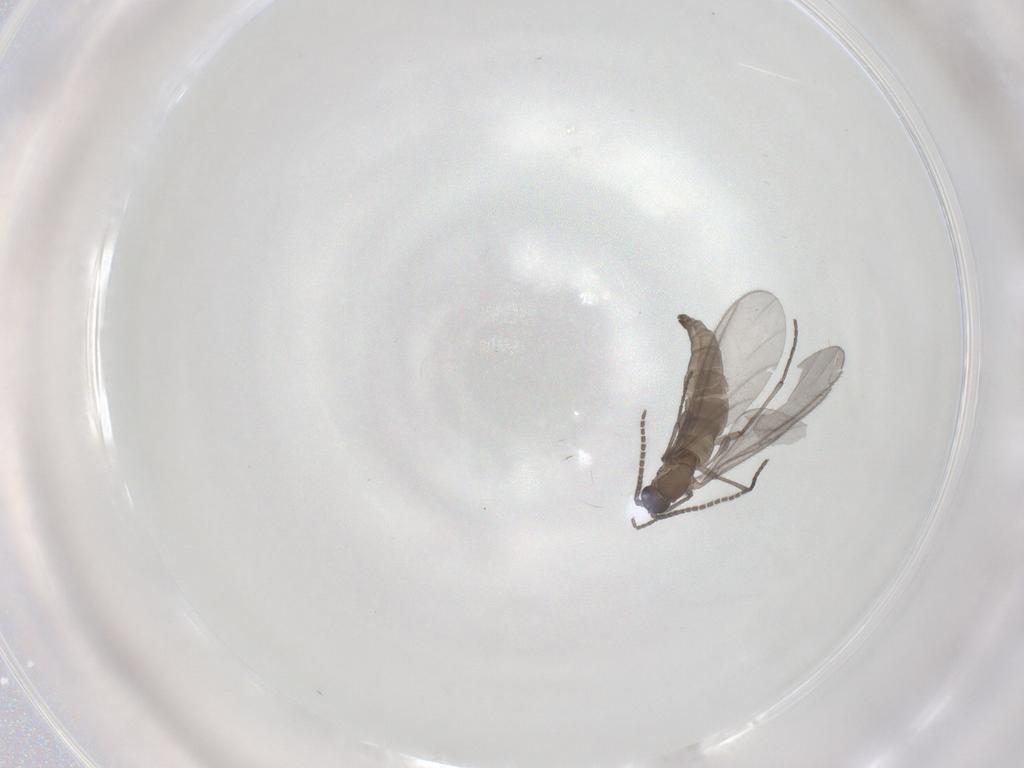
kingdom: Animalia
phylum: Arthropoda
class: Insecta
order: Diptera
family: Sciaridae
